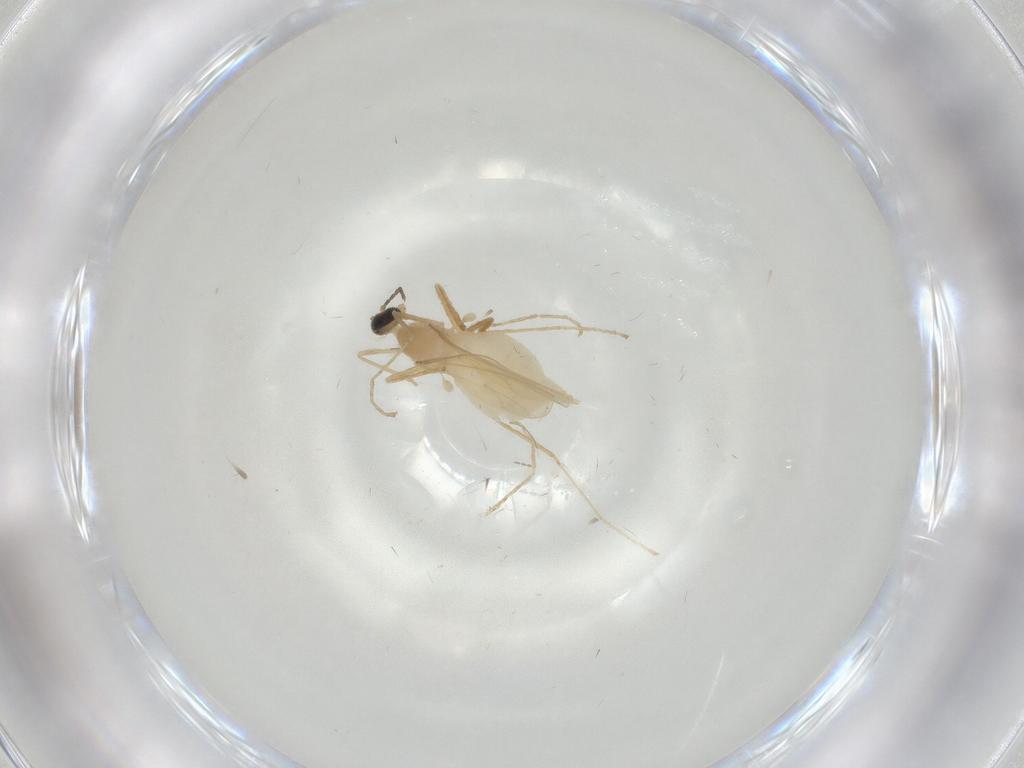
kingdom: Animalia
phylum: Arthropoda
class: Insecta
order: Diptera
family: Cecidomyiidae
